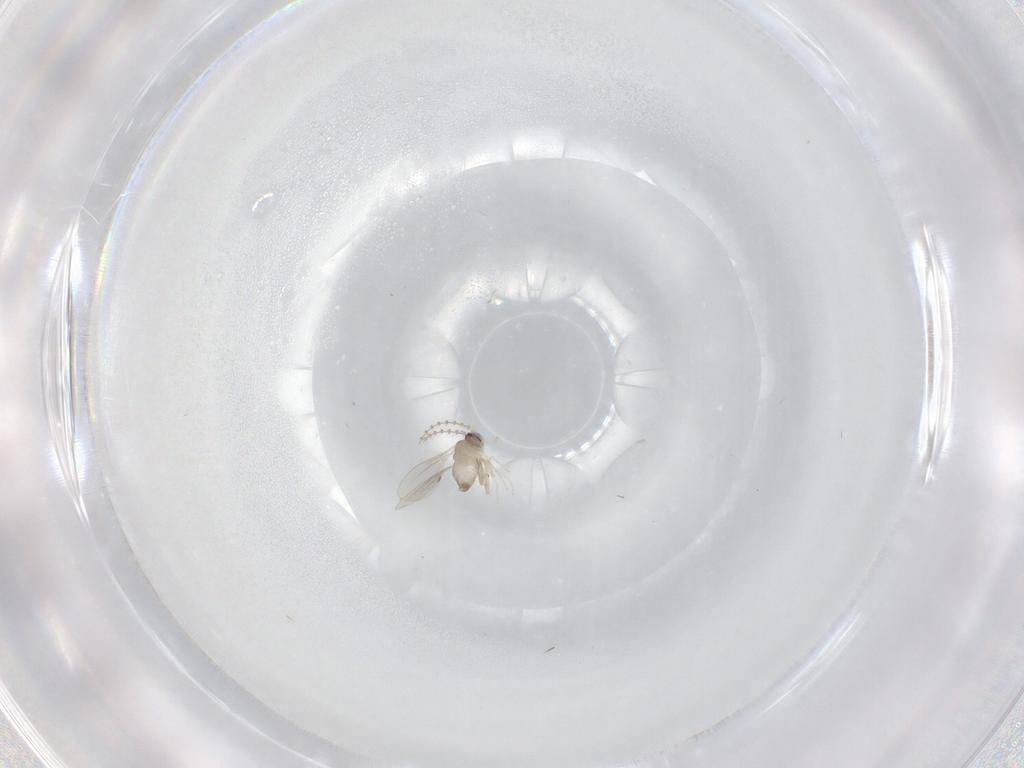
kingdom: Animalia
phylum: Arthropoda
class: Insecta
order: Diptera
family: Cecidomyiidae
